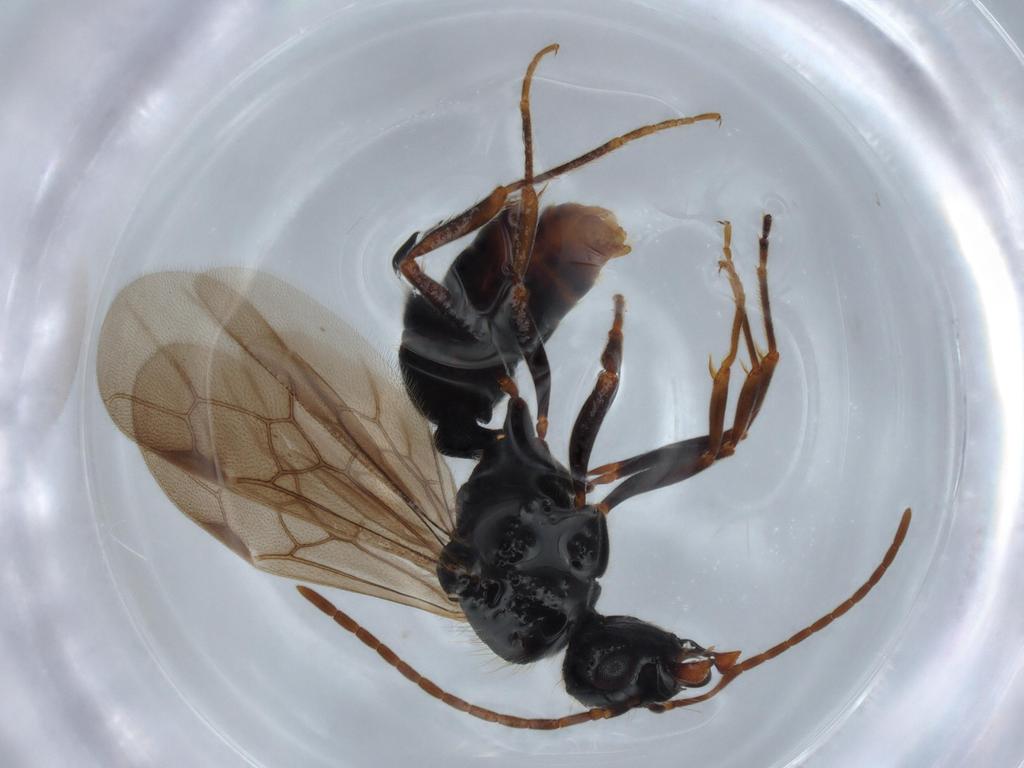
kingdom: Animalia
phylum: Arthropoda
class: Insecta
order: Hymenoptera
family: Formicidae
